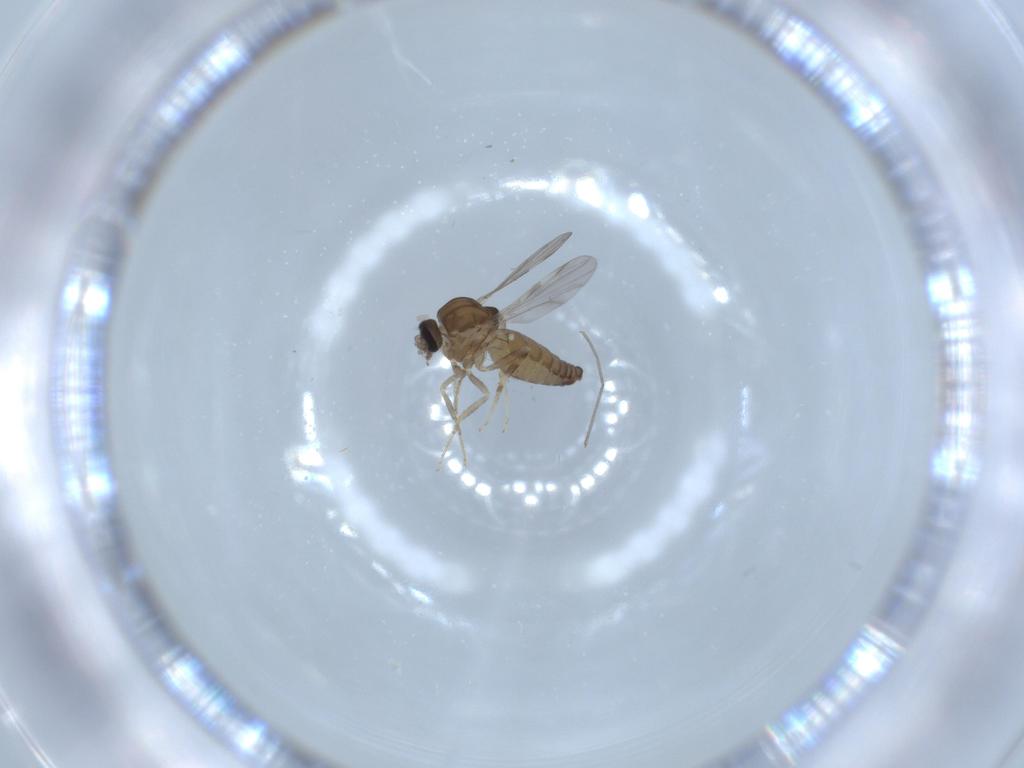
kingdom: Animalia
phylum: Arthropoda
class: Insecta
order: Diptera
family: Ceratopogonidae
